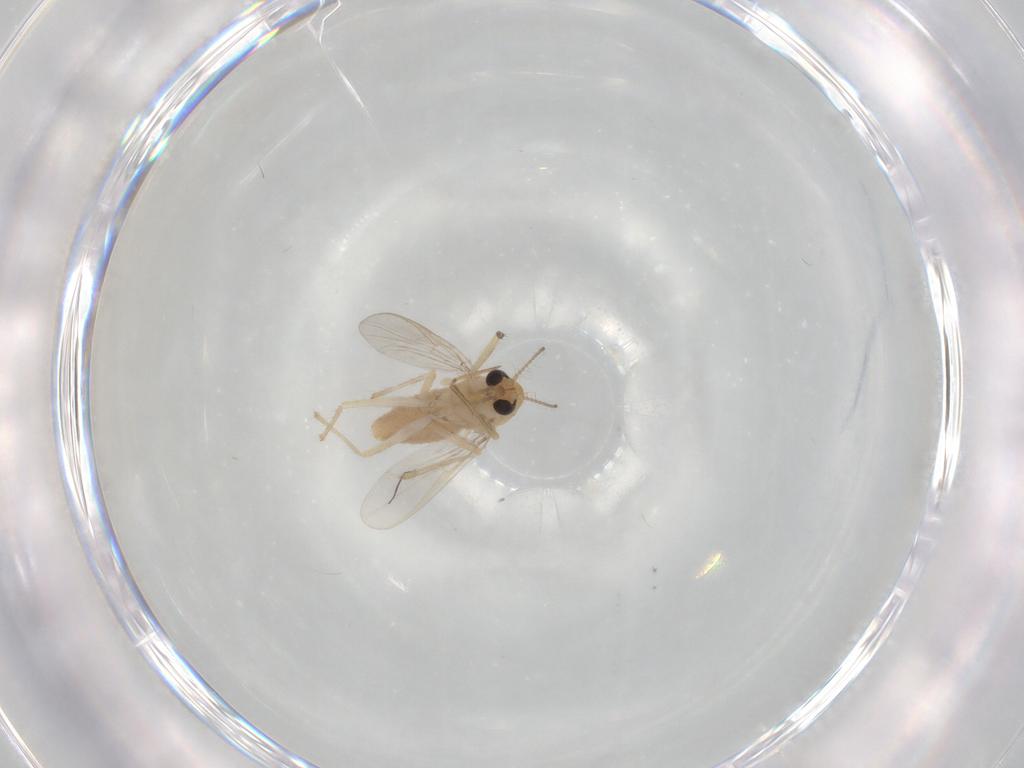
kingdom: Animalia
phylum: Arthropoda
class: Insecta
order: Diptera
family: Chironomidae
